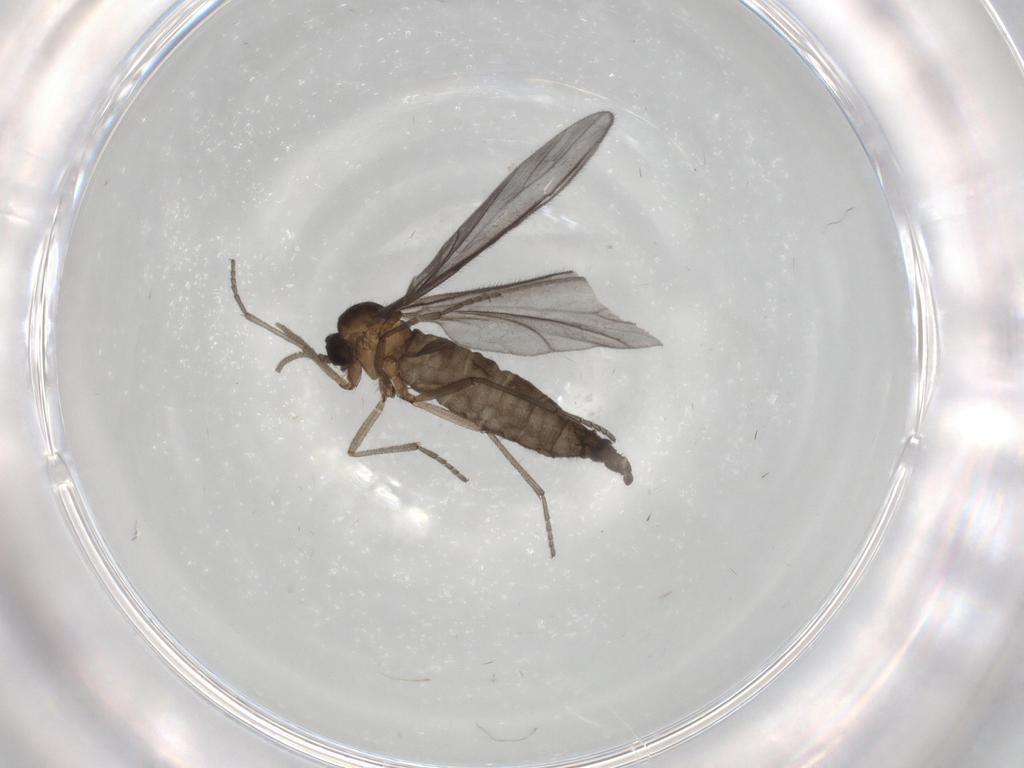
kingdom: Animalia
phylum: Arthropoda
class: Insecta
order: Diptera
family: Sciaridae
